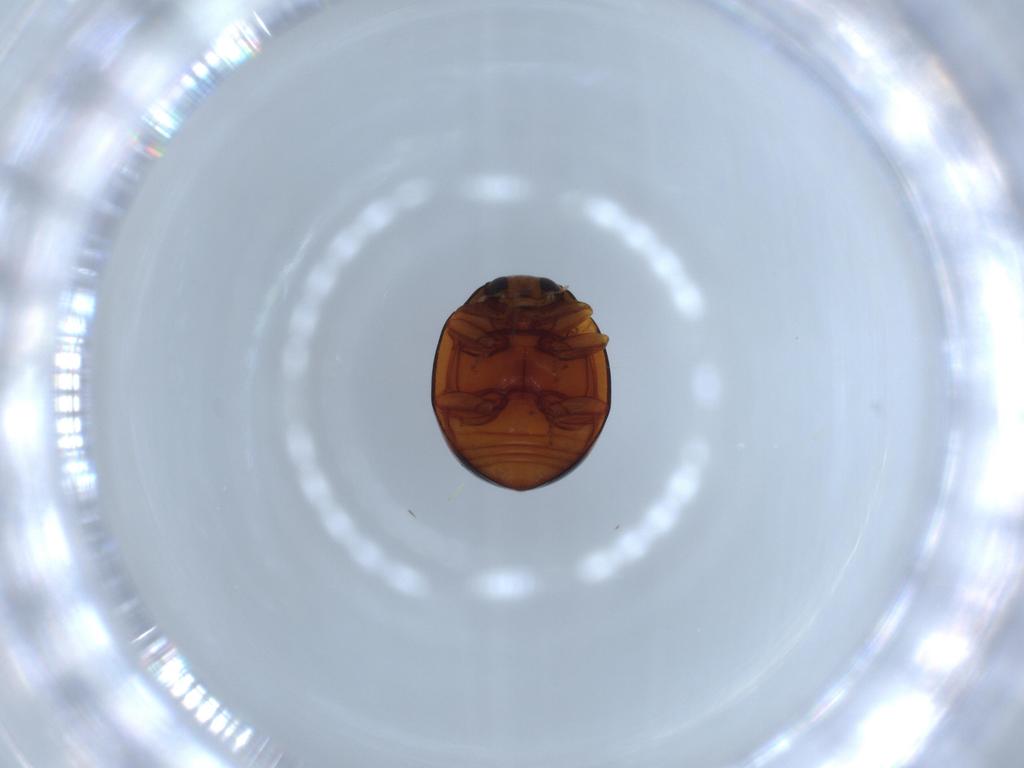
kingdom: Animalia
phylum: Arthropoda
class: Insecta
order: Coleoptera
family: Coccinellidae
